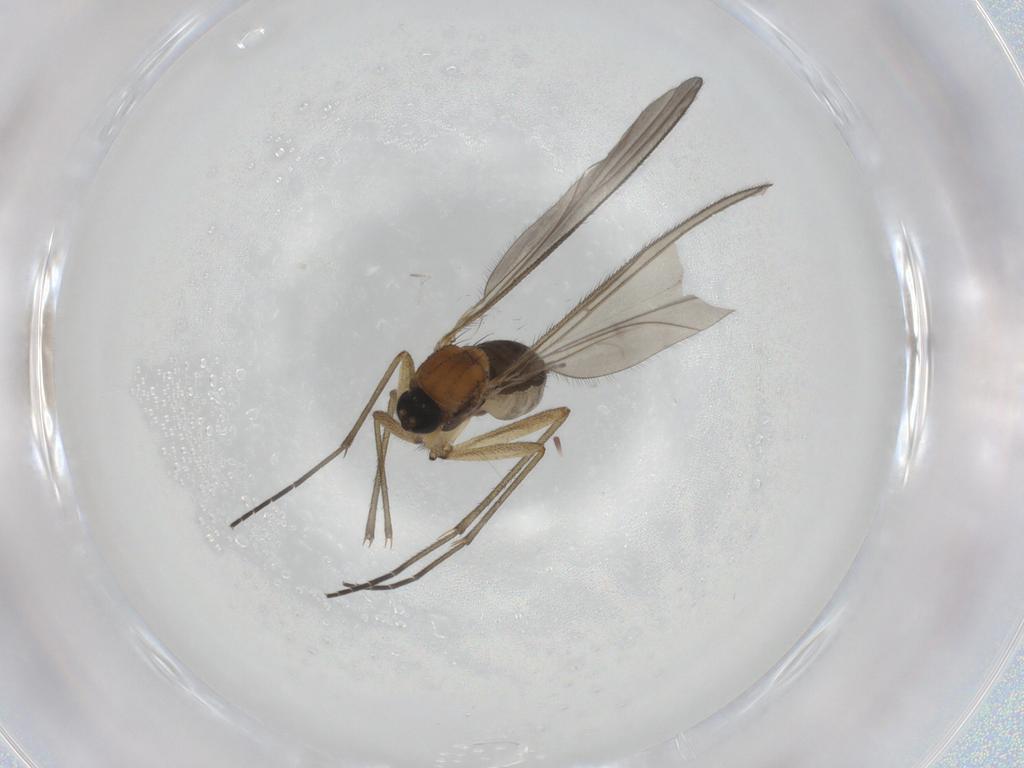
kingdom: Animalia
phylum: Arthropoda
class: Insecta
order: Diptera
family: Sciaridae
